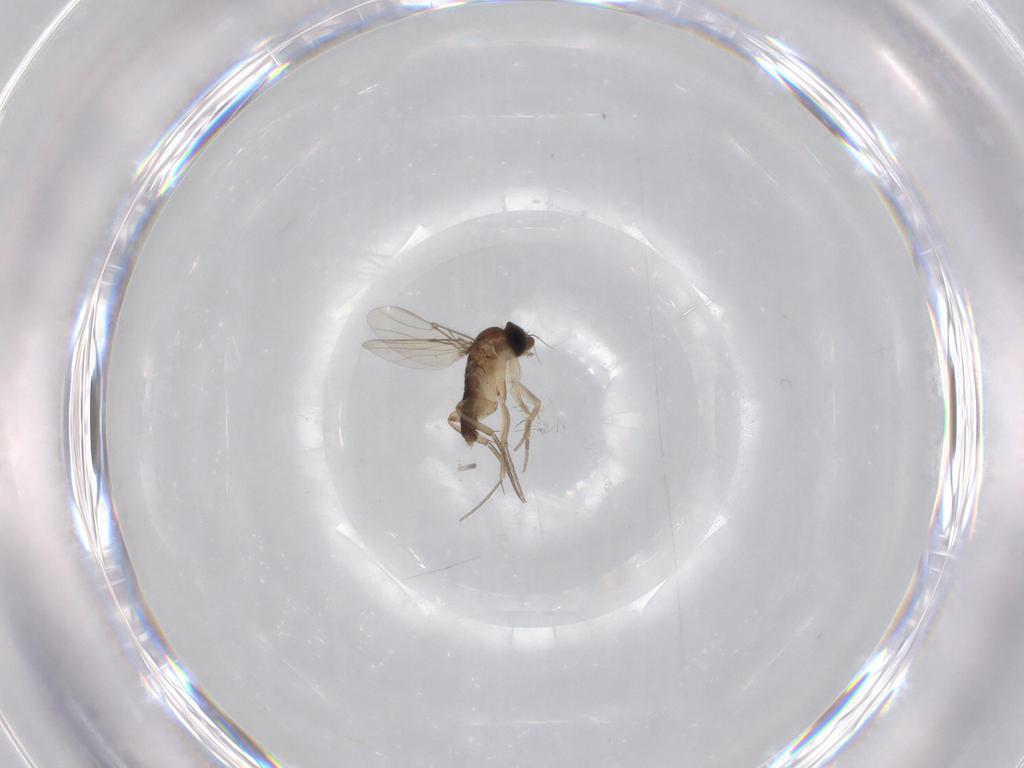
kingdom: Animalia
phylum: Arthropoda
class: Insecta
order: Diptera
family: Phoridae
